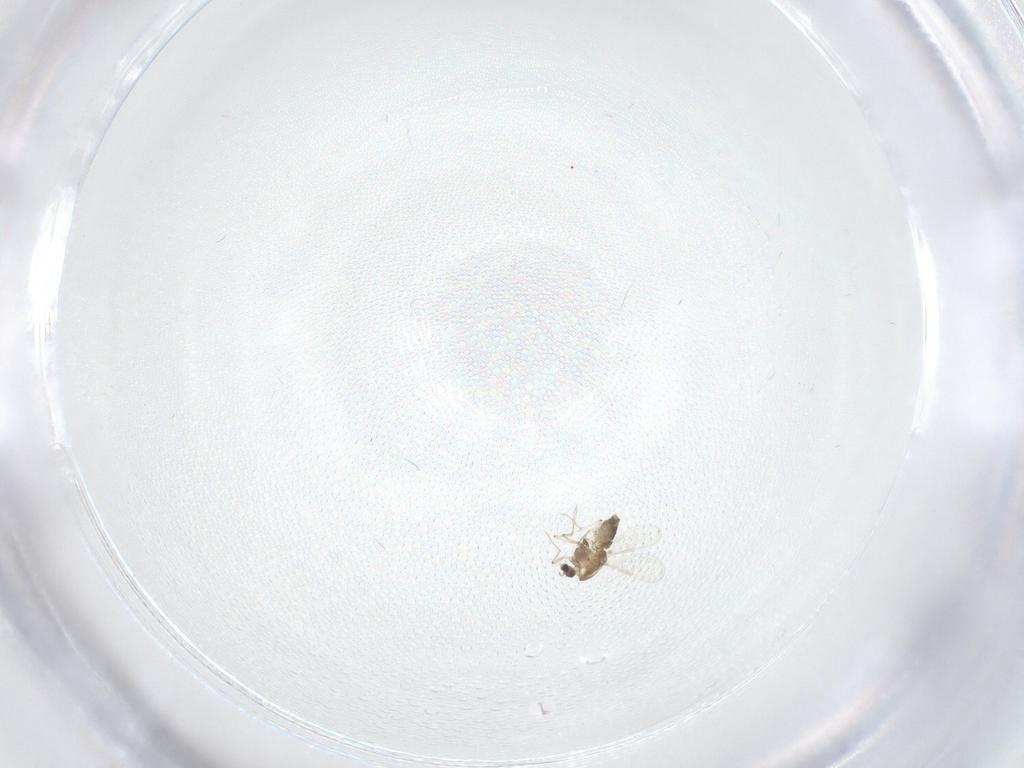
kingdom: Animalia
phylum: Arthropoda
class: Insecta
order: Diptera
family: Chironomidae
